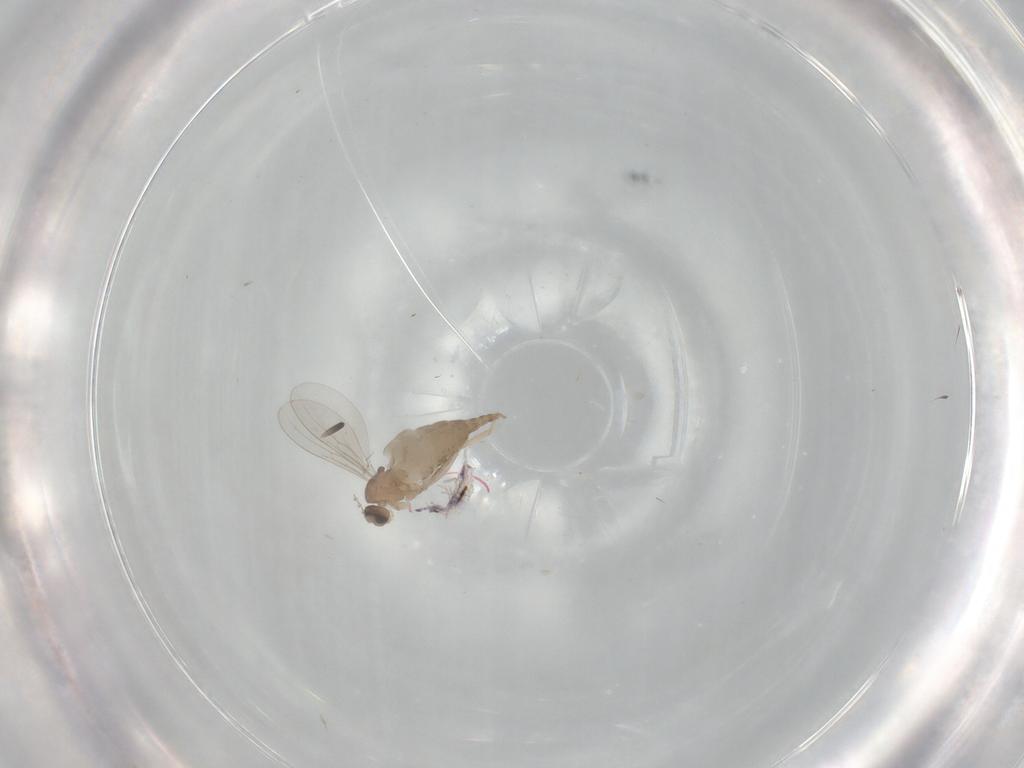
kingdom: Animalia
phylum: Arthropoda
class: Insecta
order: Diptera
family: Cecidomyiidae
